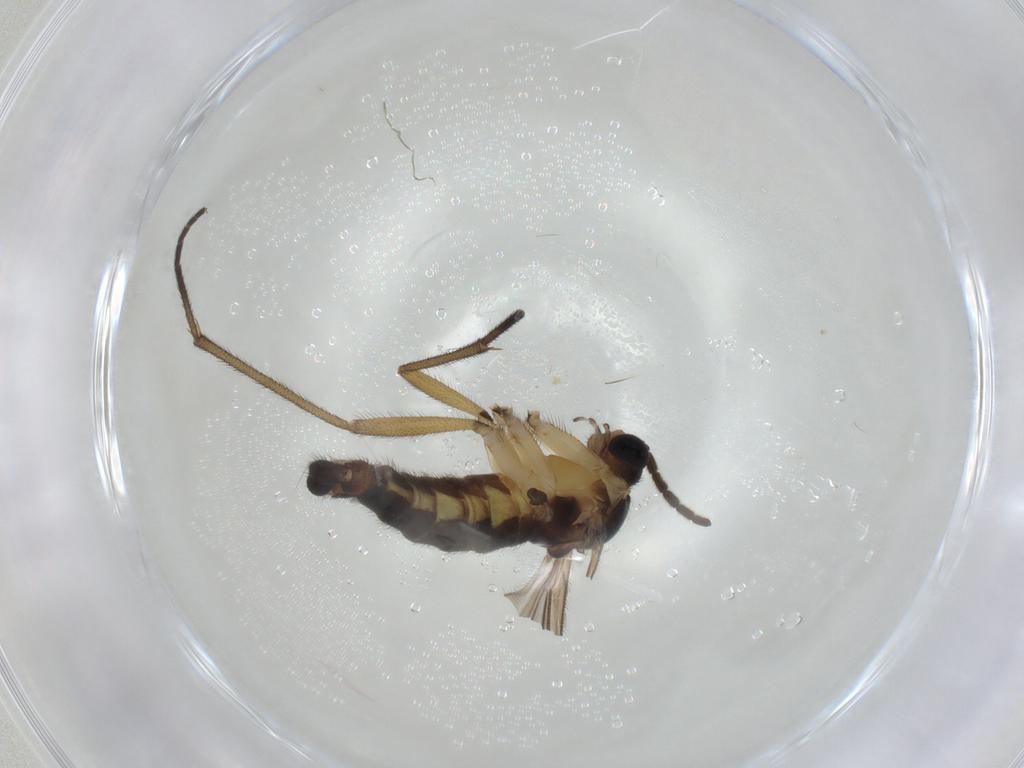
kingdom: Animalia
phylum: Arthropoda
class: Insecta
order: Diptera
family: Sciaridae
